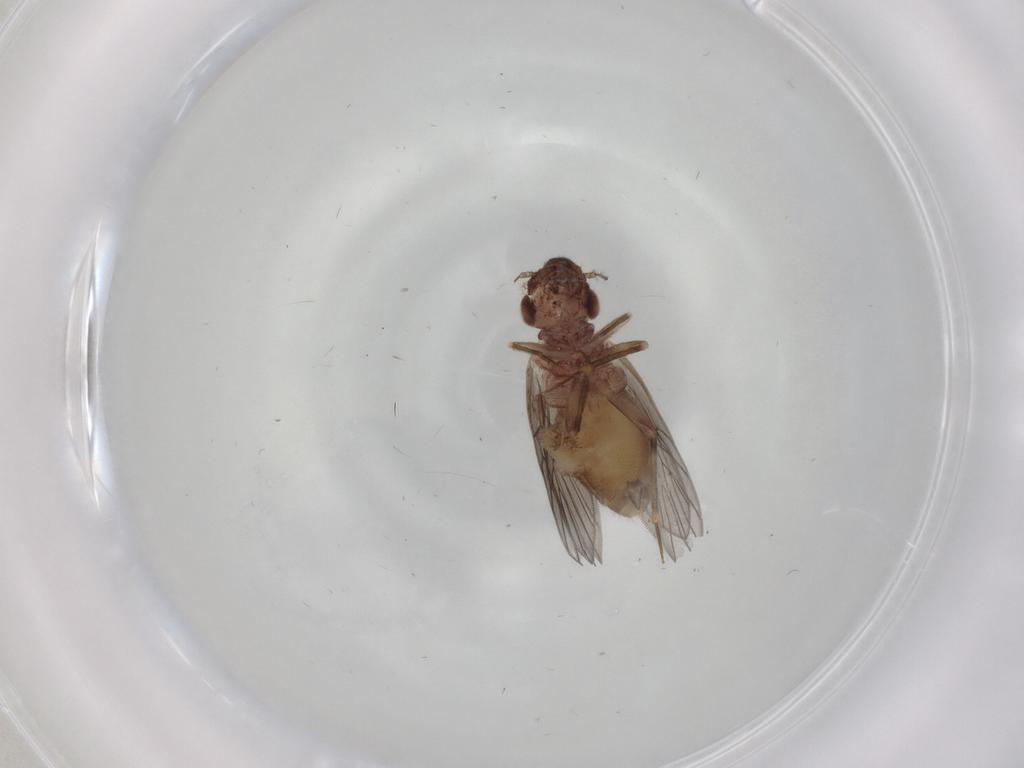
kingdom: Animalia
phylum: Arthropoda
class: Insecta
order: Psocodea
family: Lepidopsocidae
